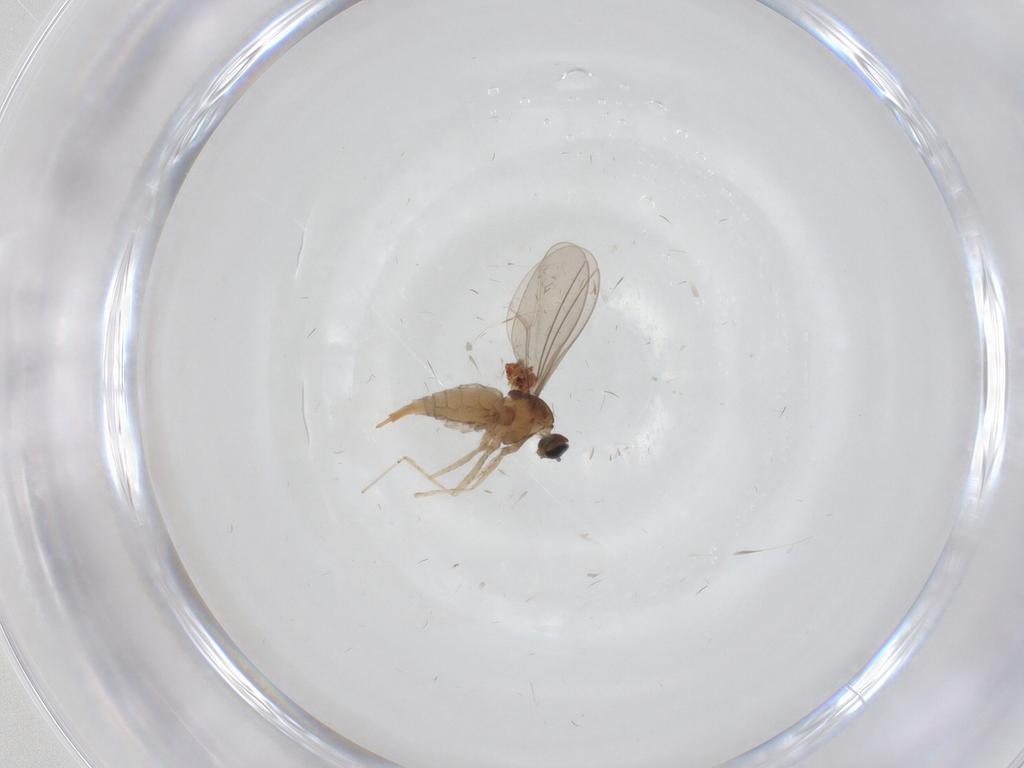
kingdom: Animalia
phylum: Arthropoda
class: Insecta
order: Diptera
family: Cecidomyiidae
